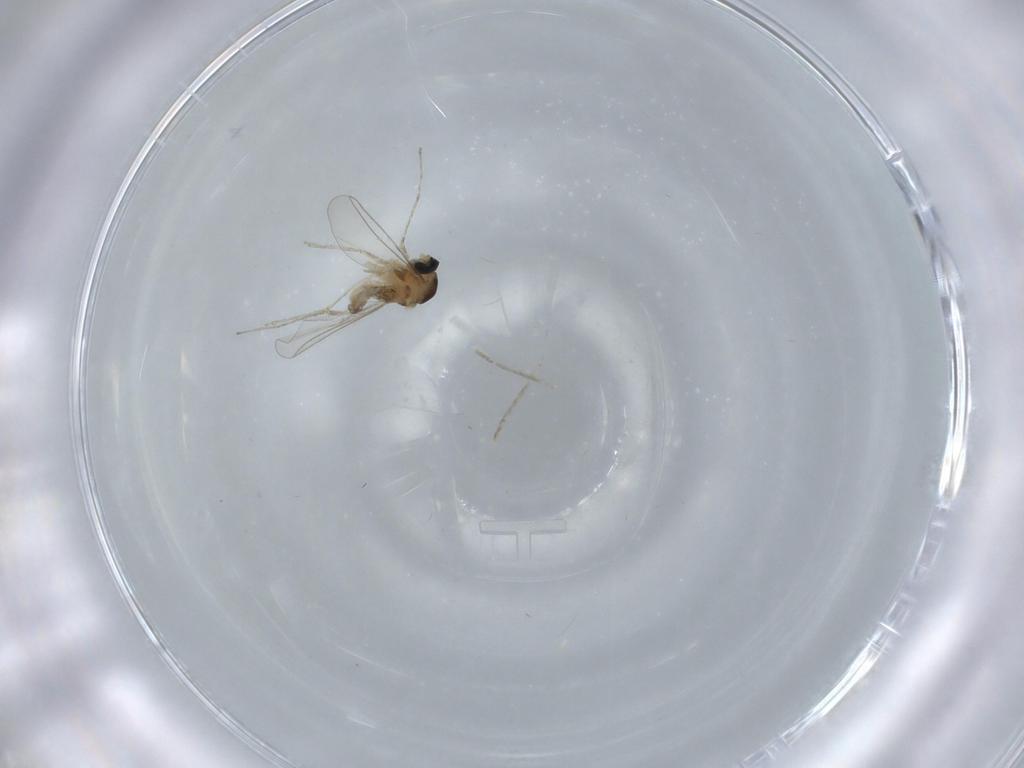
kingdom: Animalia
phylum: Arthropoda
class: Insecta
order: Diptera
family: Cecidomyiidae
